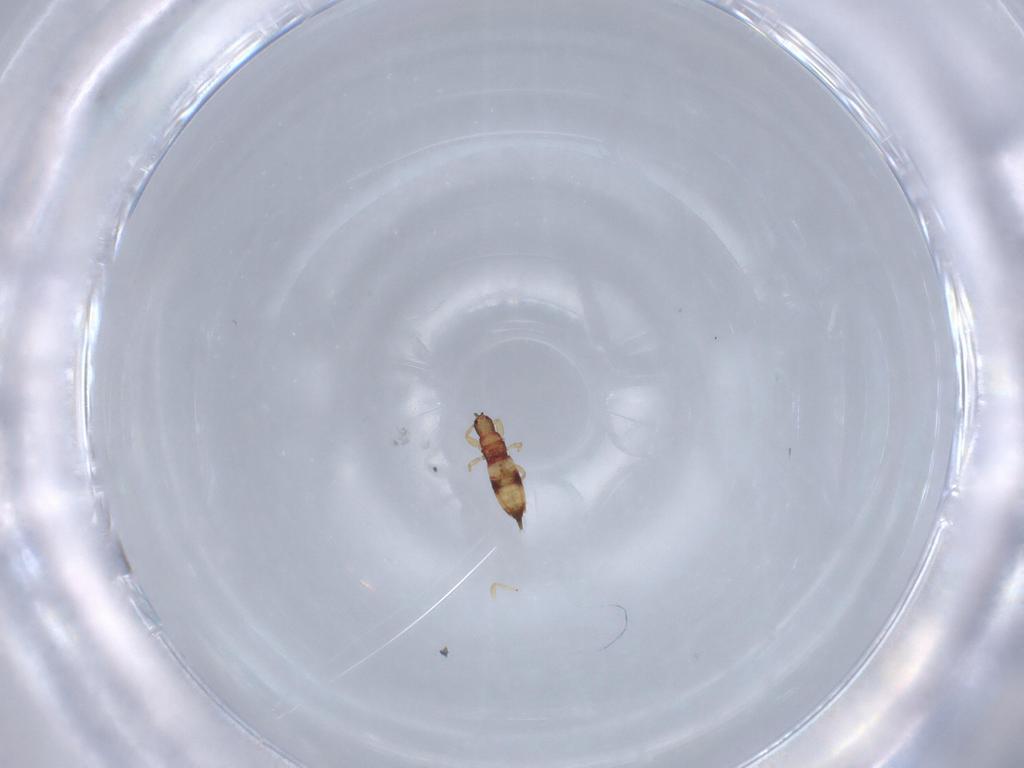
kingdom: Animalia
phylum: Arthropoda
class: Insecta
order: Thysanoptera
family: Phlaeothripidae
